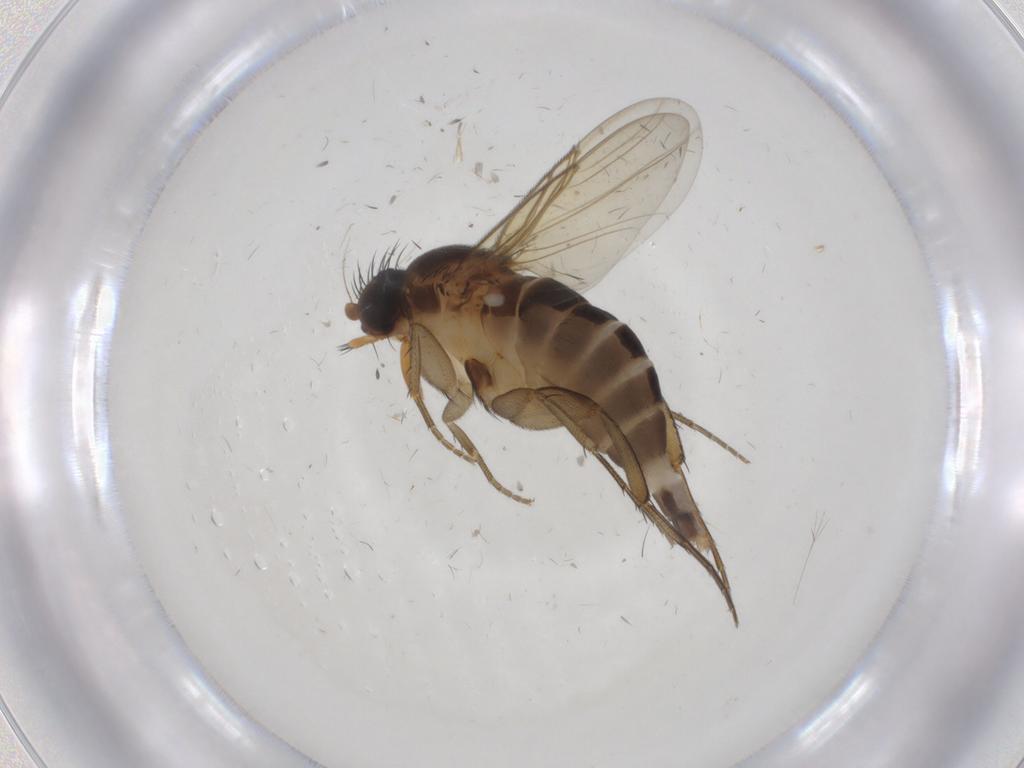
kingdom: Animalia
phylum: Arthropoda
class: Insecta
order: Diptera
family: Phoridae
